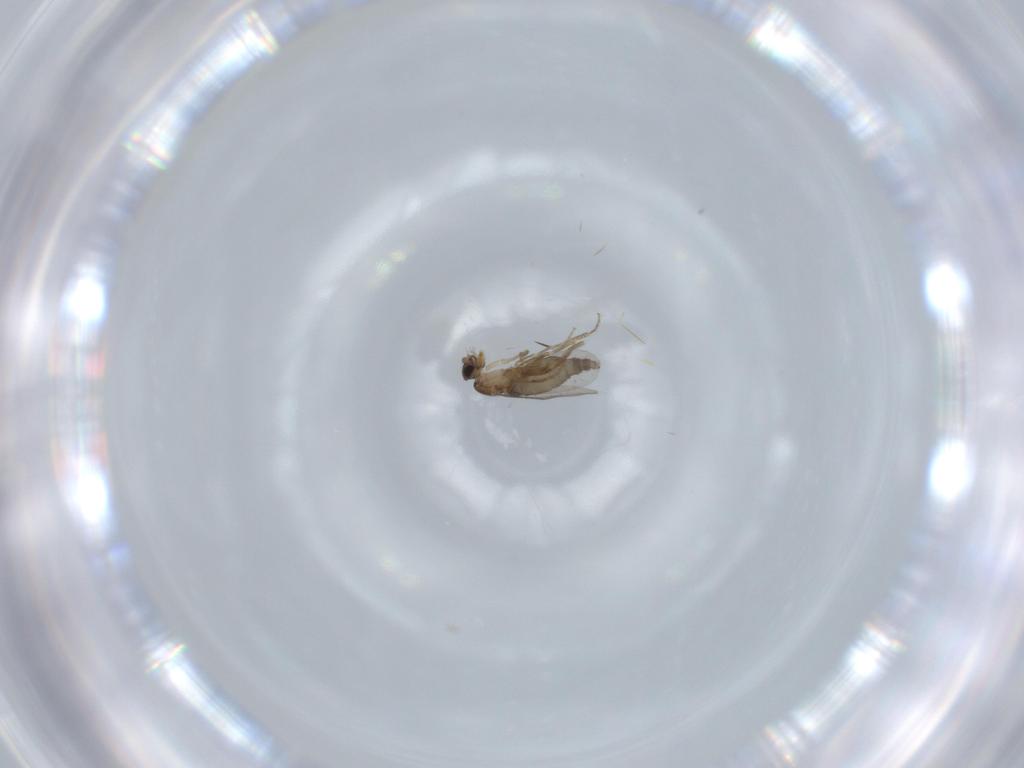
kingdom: Animalia
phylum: Arthropoda
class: Insecta
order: Diptera
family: Phoridae
